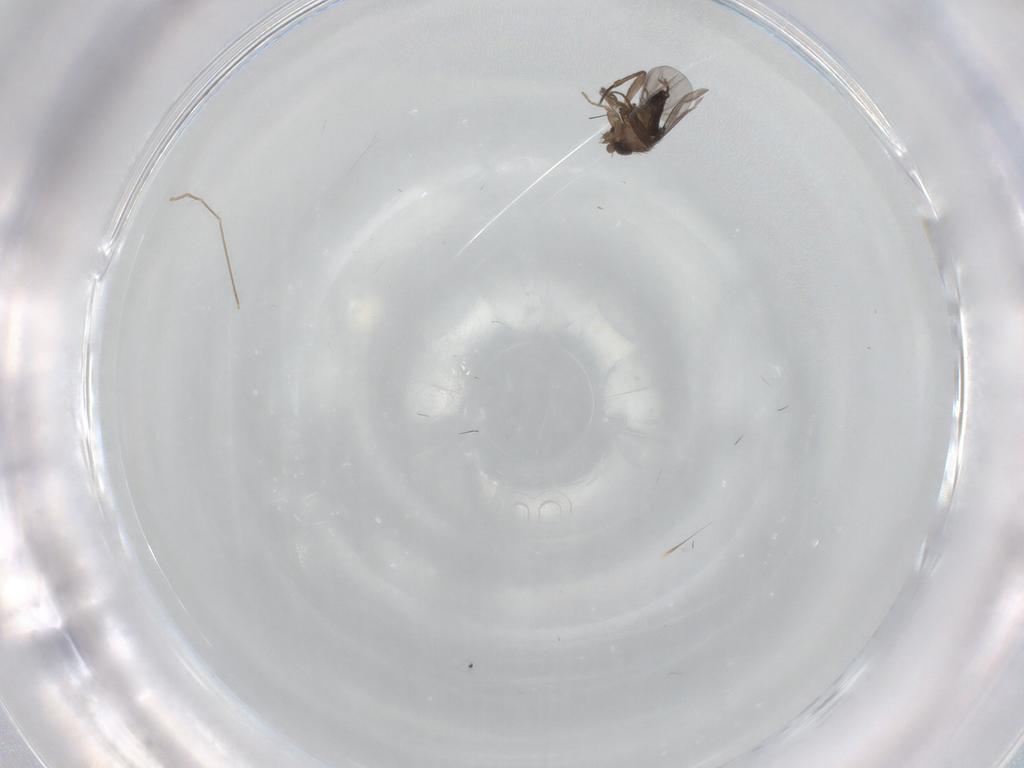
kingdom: Animalia
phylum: Arthropoda
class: Insecta
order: Diptera
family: Phoridae
